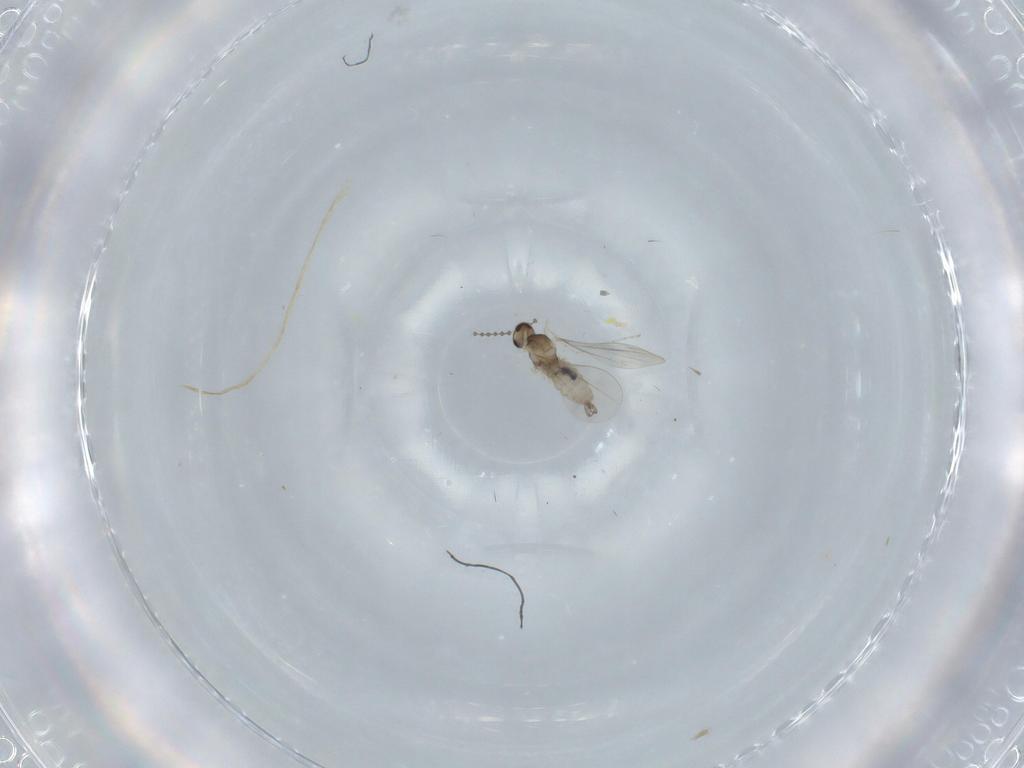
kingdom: Animalia
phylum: Arthropoda
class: Insecta
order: Diptera
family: Cecidomyiidae
